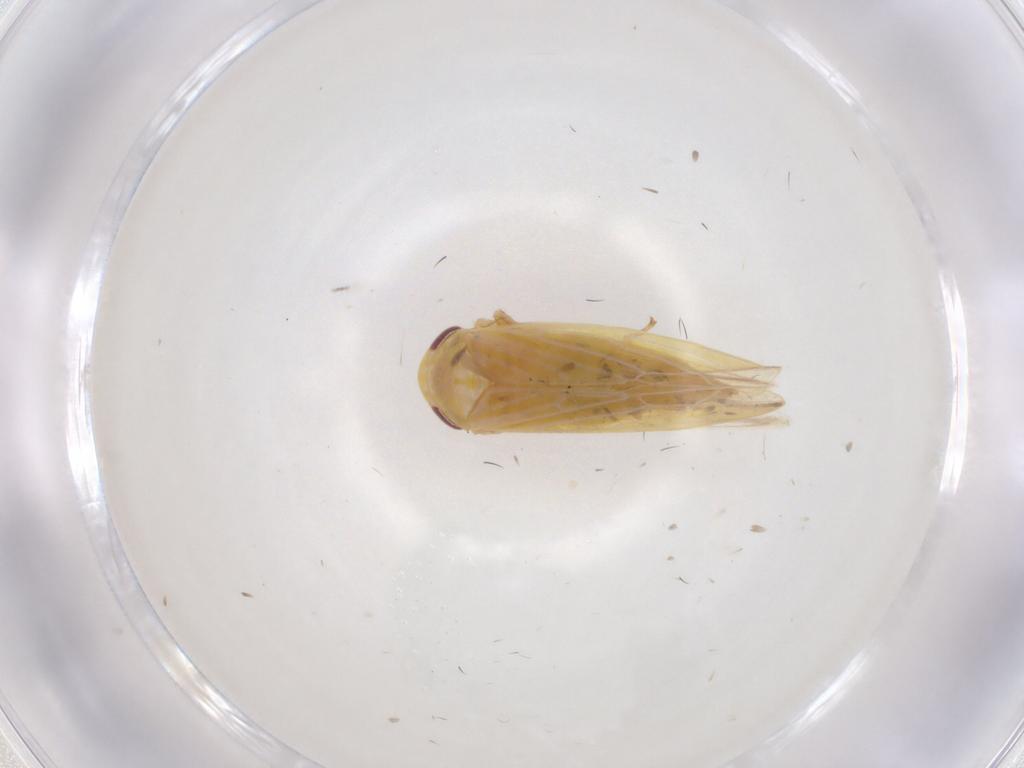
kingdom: Animalia
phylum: Arthropoda
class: Insecta
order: Hemiptera
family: Cicadellidae
